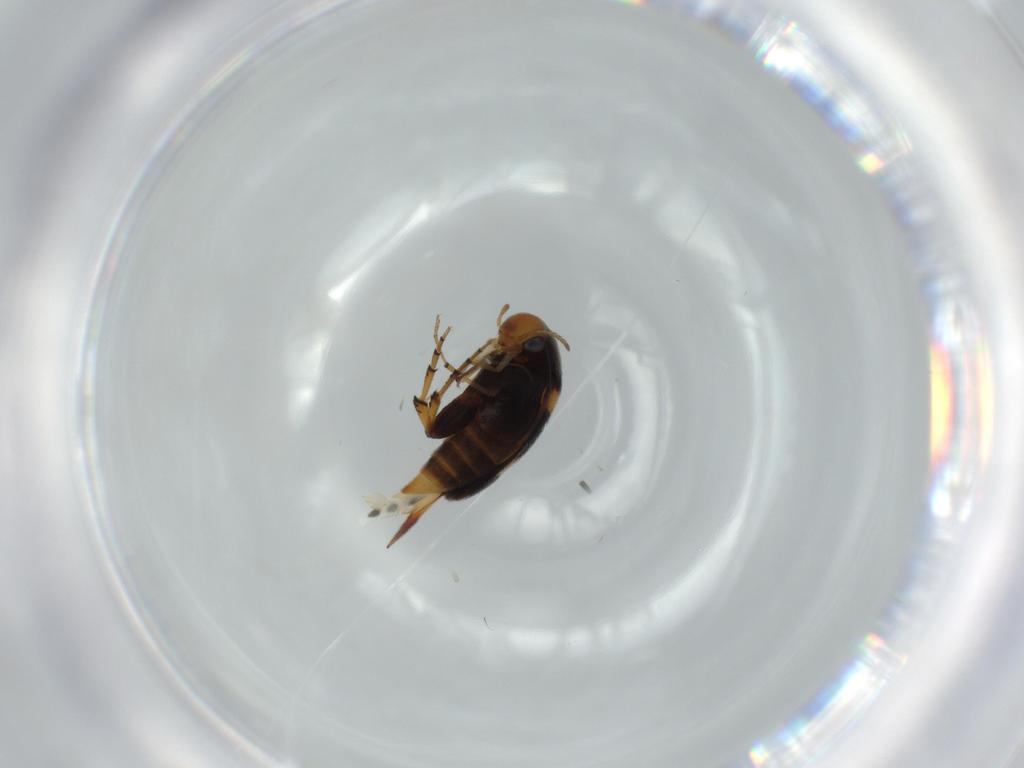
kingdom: Animalia
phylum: Arthropoda
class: Insecta
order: Coleoptera
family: Mordellidae
